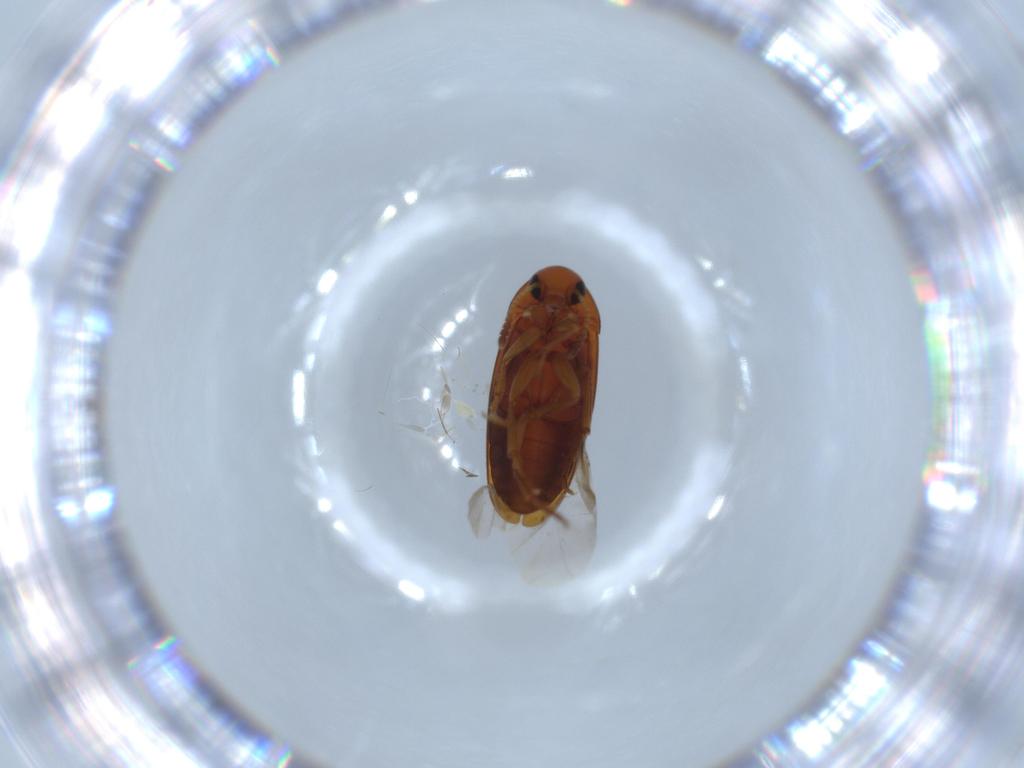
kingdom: Animalia
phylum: Arthropoda
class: Insecta
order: Coleoptera
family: Scraptiidae
